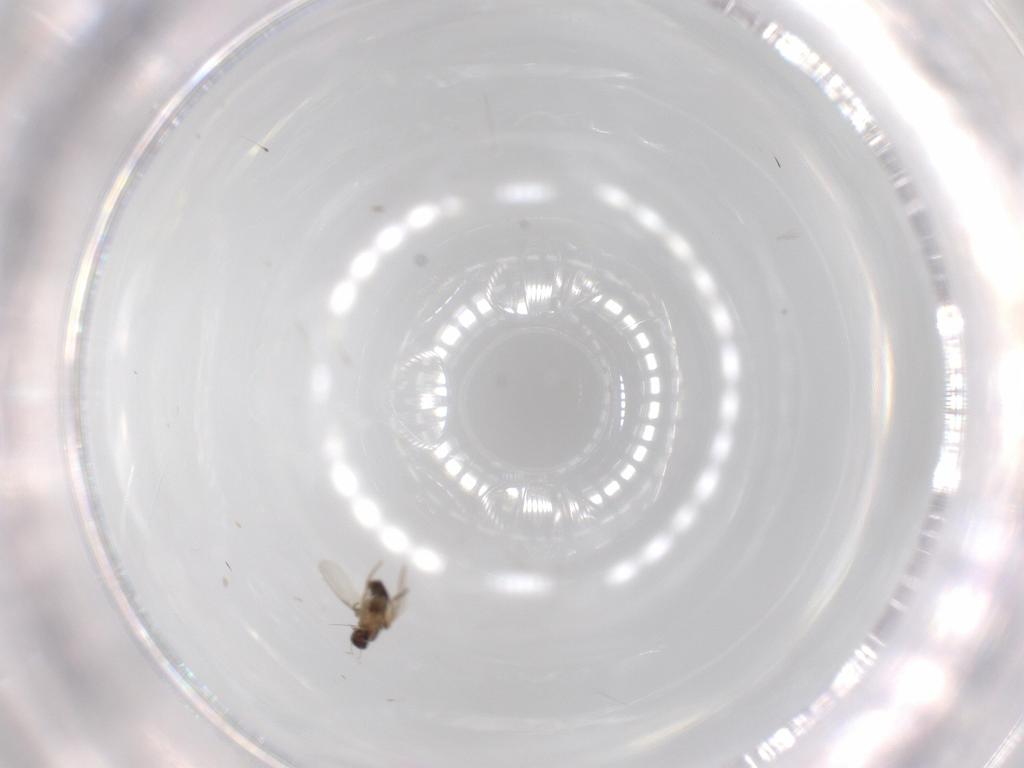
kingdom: Animalia
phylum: Arthropoda
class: Insecta
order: Diptera
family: Phoridae
